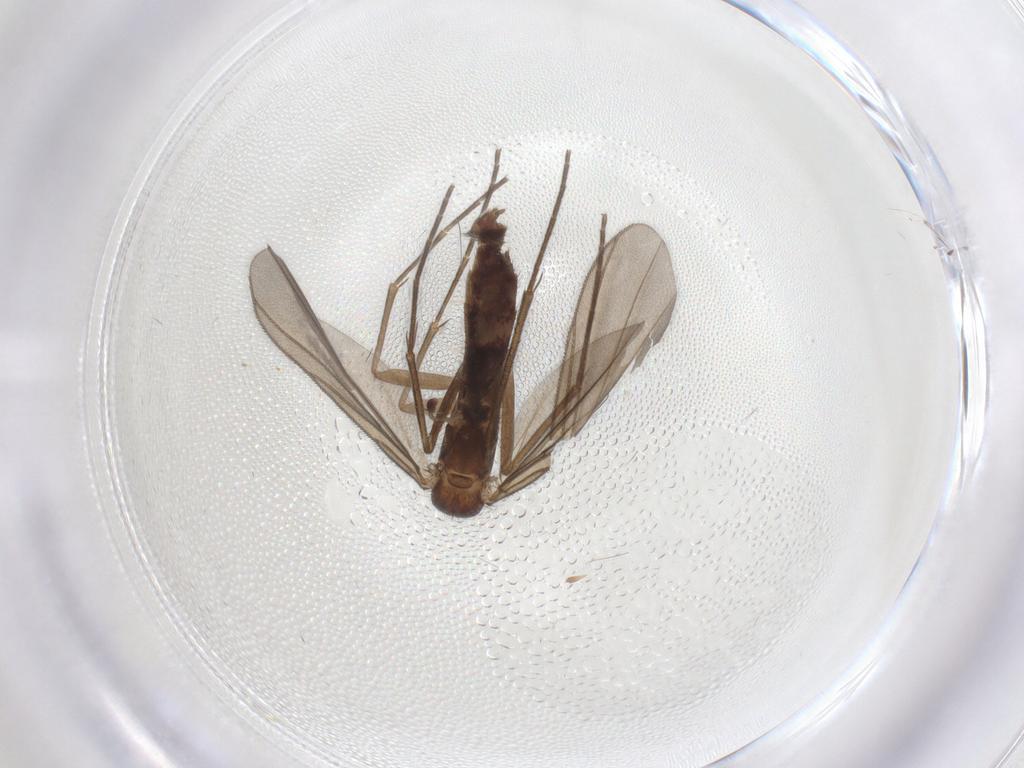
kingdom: Animalia
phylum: Arthropoda
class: Insecta
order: Diptera
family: Mycetophilidae
